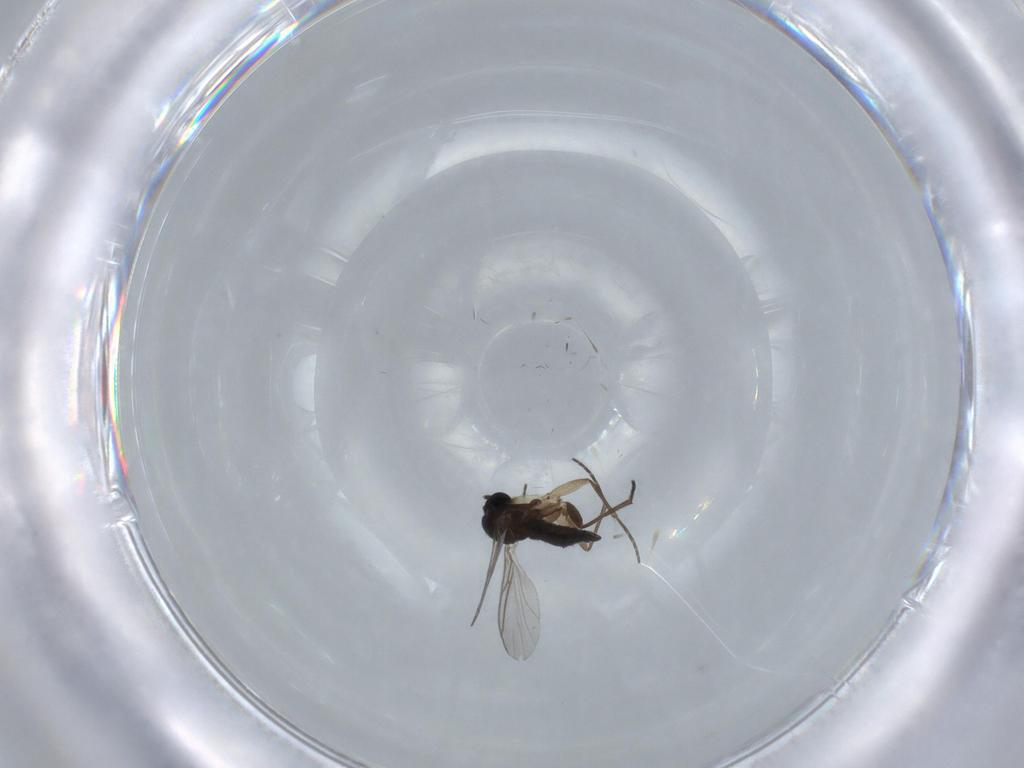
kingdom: Animalia
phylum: Arthropoda
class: Insecta
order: Diptera
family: Sciaridae
